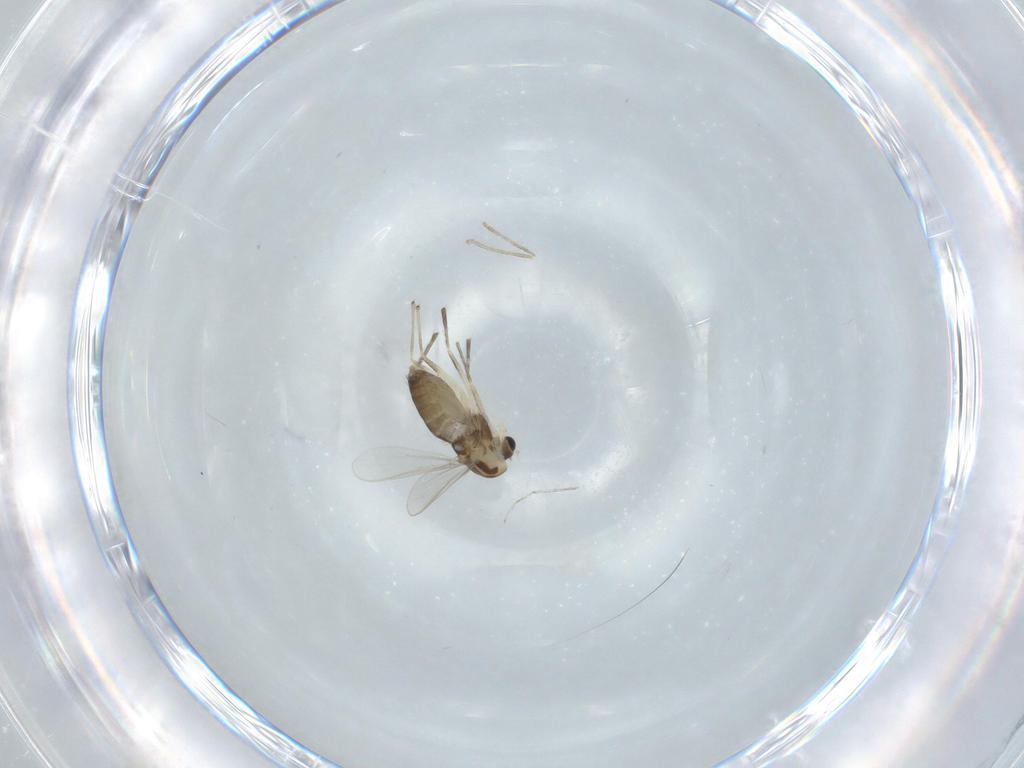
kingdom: Animalia
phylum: Arthropoda
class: Insecta
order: Diptera
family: Chironomidae
